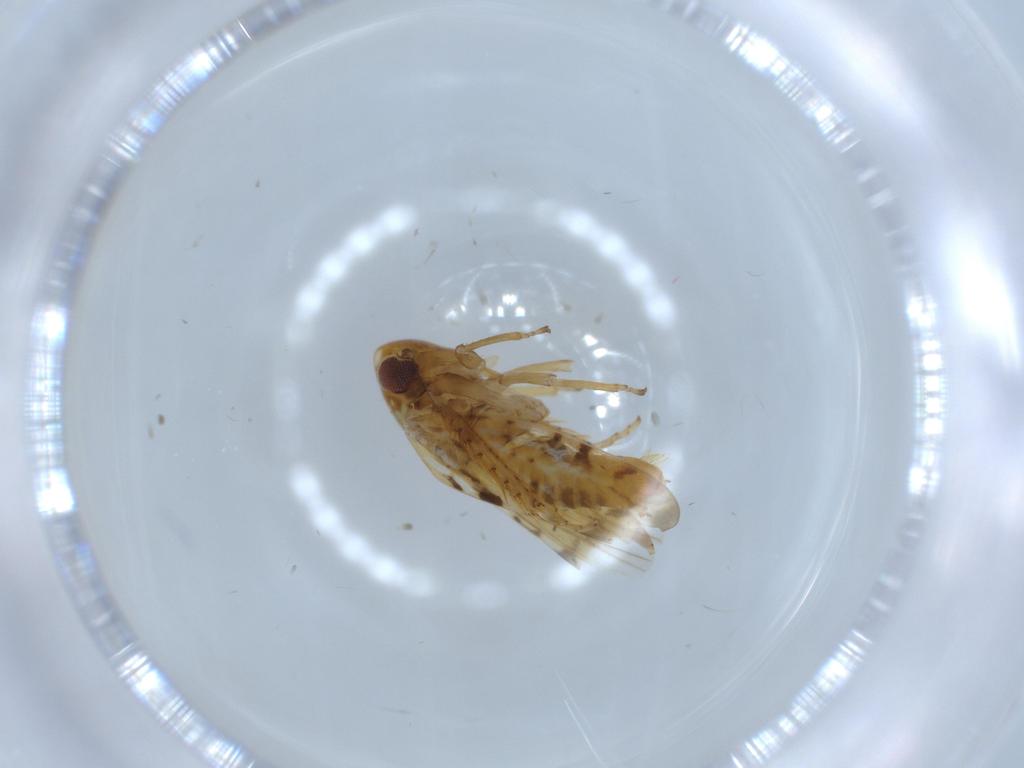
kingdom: Animalia
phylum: Arthropoda
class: Insecta
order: Hemiptera
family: Cicadellidae
